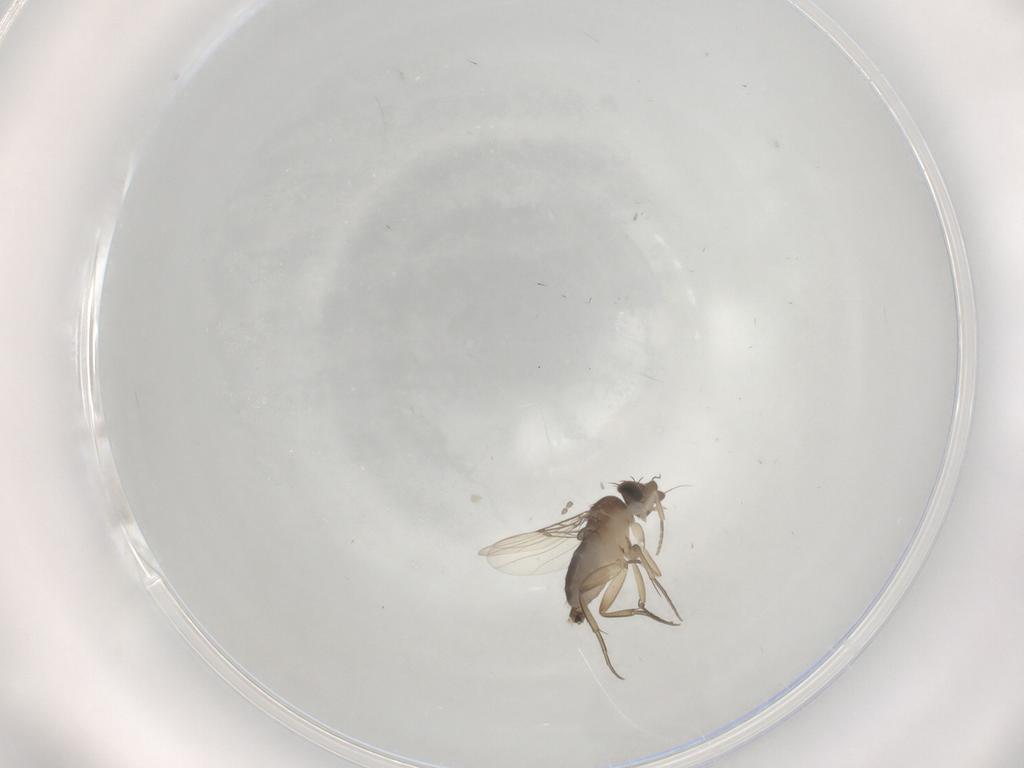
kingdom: Animalia
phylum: Arthropoda
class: Insecta
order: Diptera
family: Phoridae
